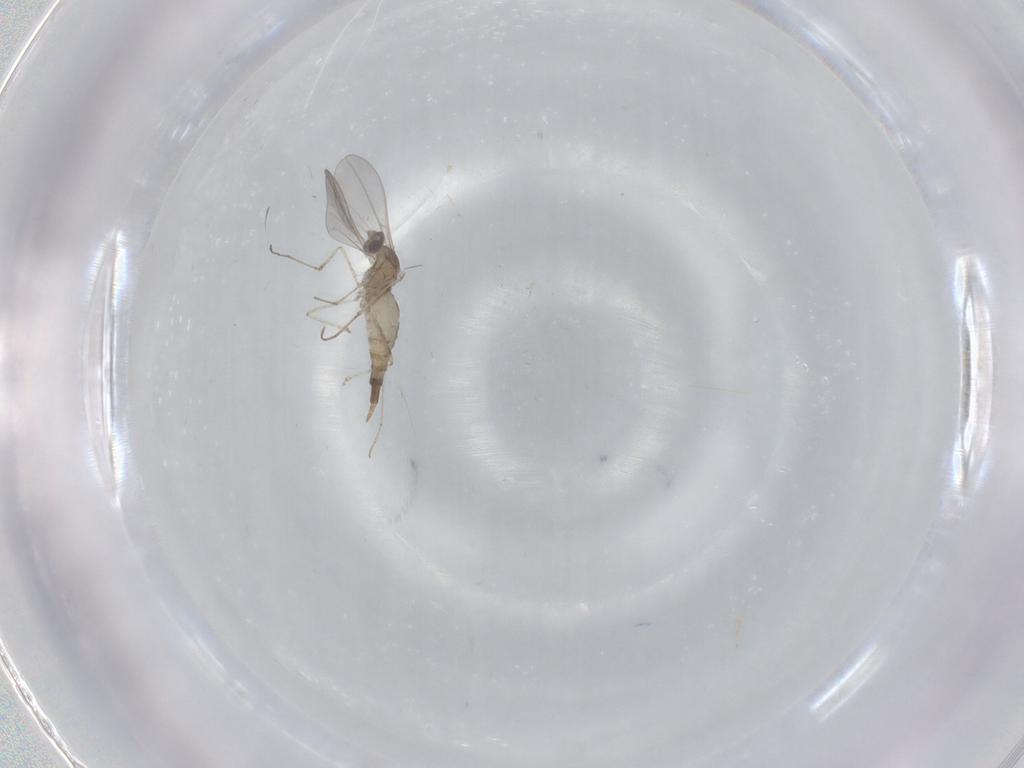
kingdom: Animalia
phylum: Arthropoda
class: Insecta
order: Diptera
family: Cecidomyiidae
